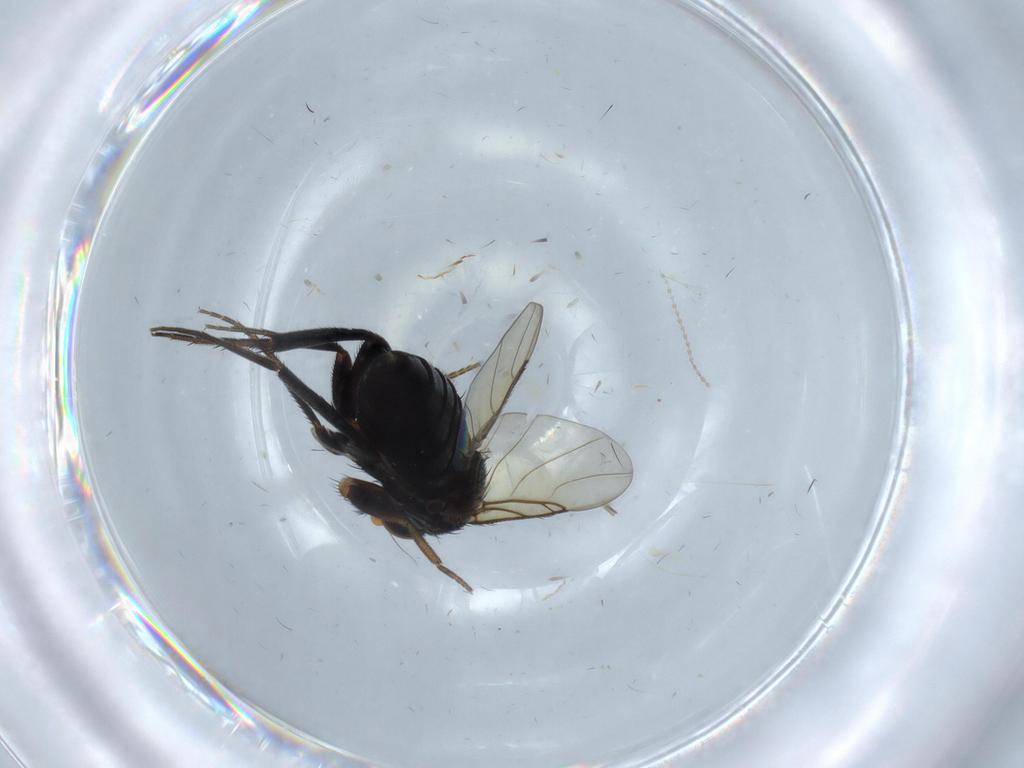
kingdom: Animalia
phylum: Arthropoda
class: Insecta
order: Diptera
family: Phoridae
